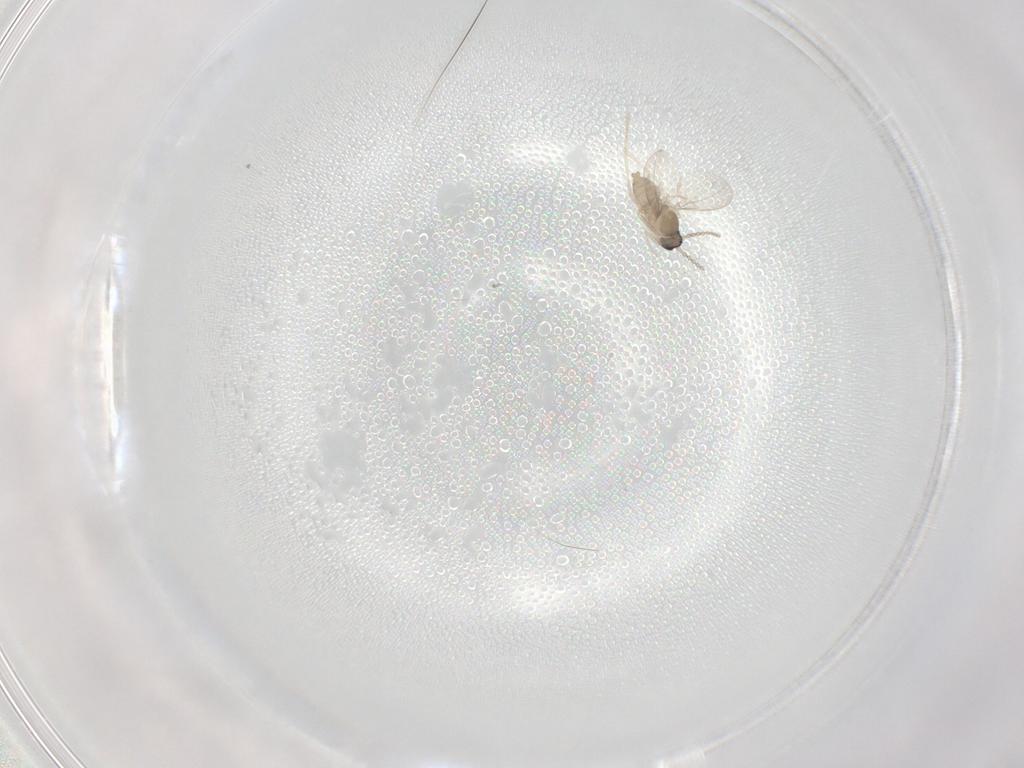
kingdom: Animalia
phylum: Arthropoda
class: Insecta
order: Diptera
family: Cecidomyiidae
